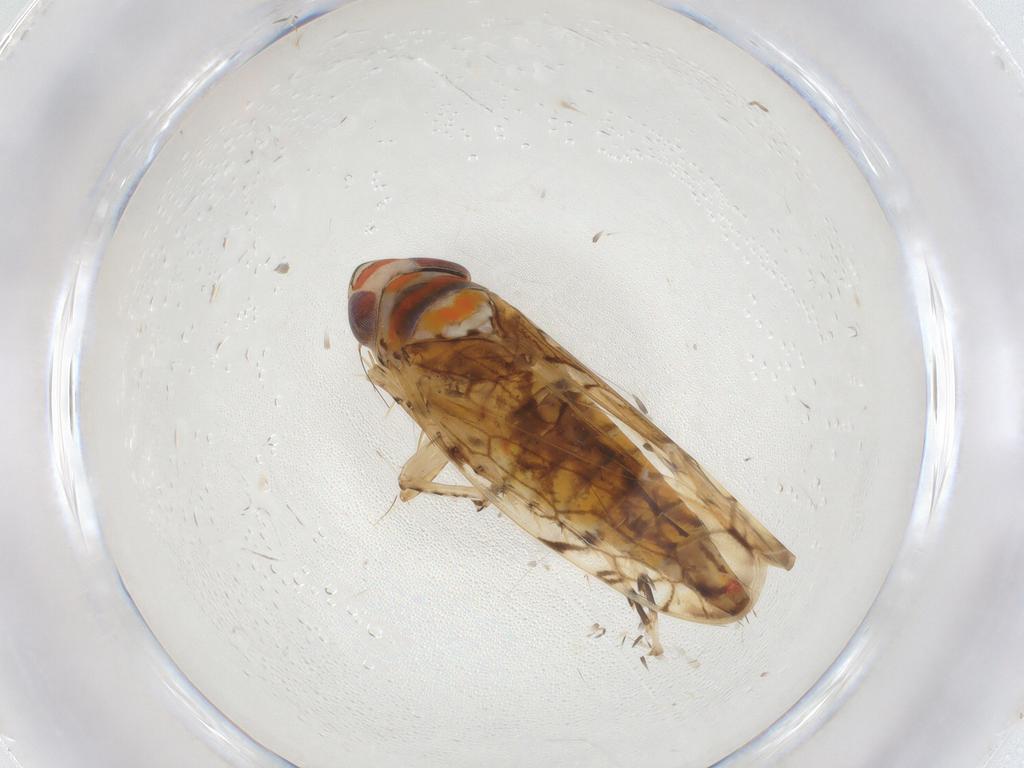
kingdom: Animalia
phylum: Arthropoda
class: Insecta
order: Hemiptera
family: Cicadellidae
